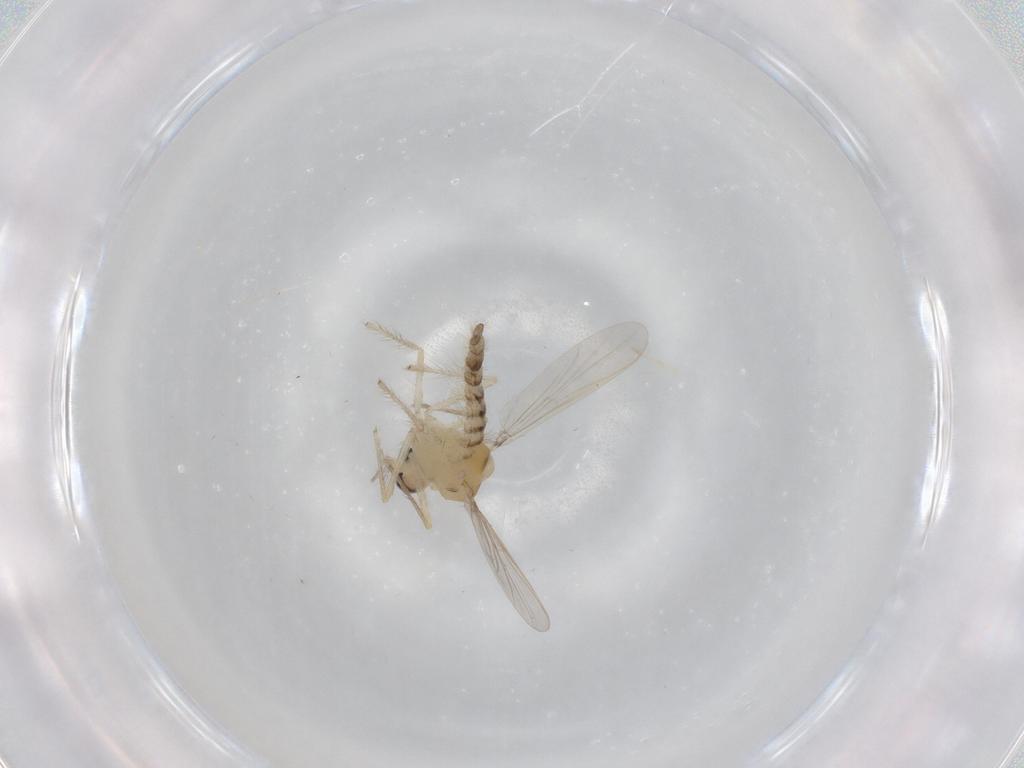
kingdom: Animalia
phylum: Arthropoda
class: Insecta
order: Diptera
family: Psychodidae
